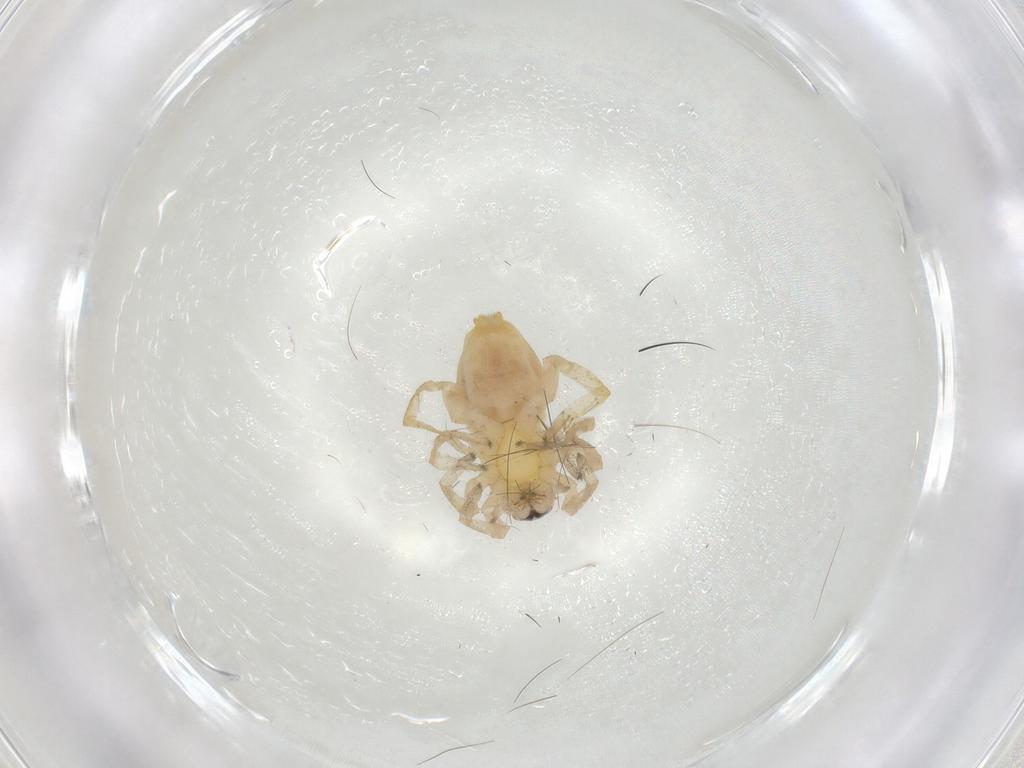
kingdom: Animalia
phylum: Arthropoda
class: Arachnida
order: Araneae
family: Clubionidae
